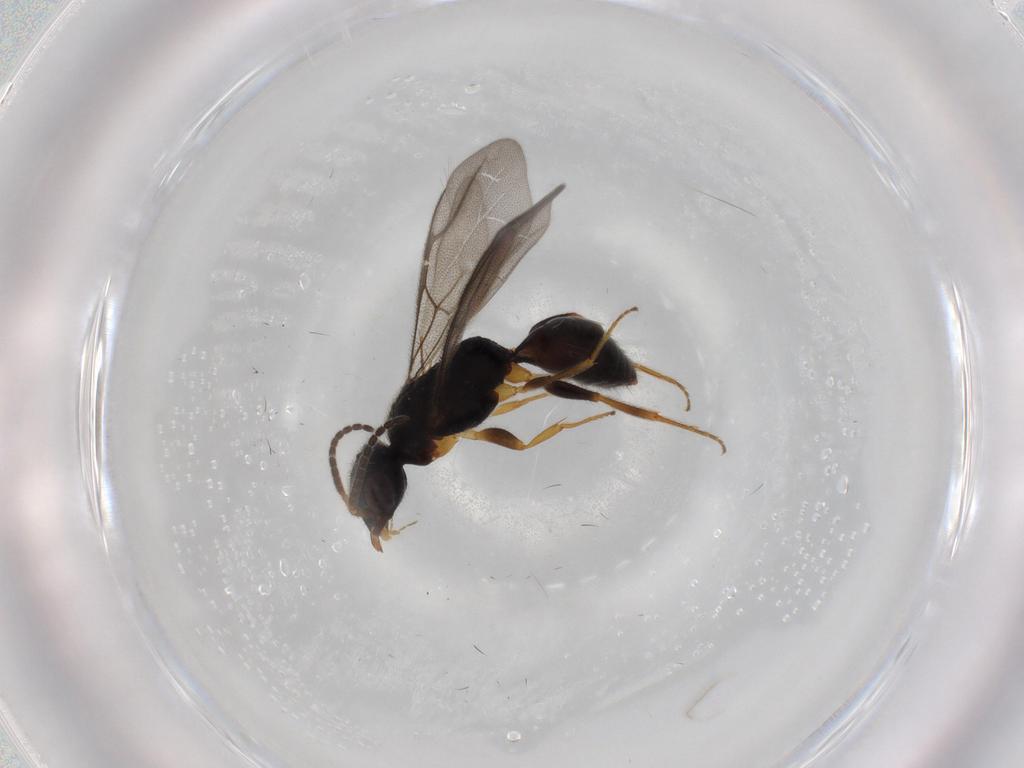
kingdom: Animalia
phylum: Arthropoda
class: Insecta
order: Hymenoptera
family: Bethylidae
